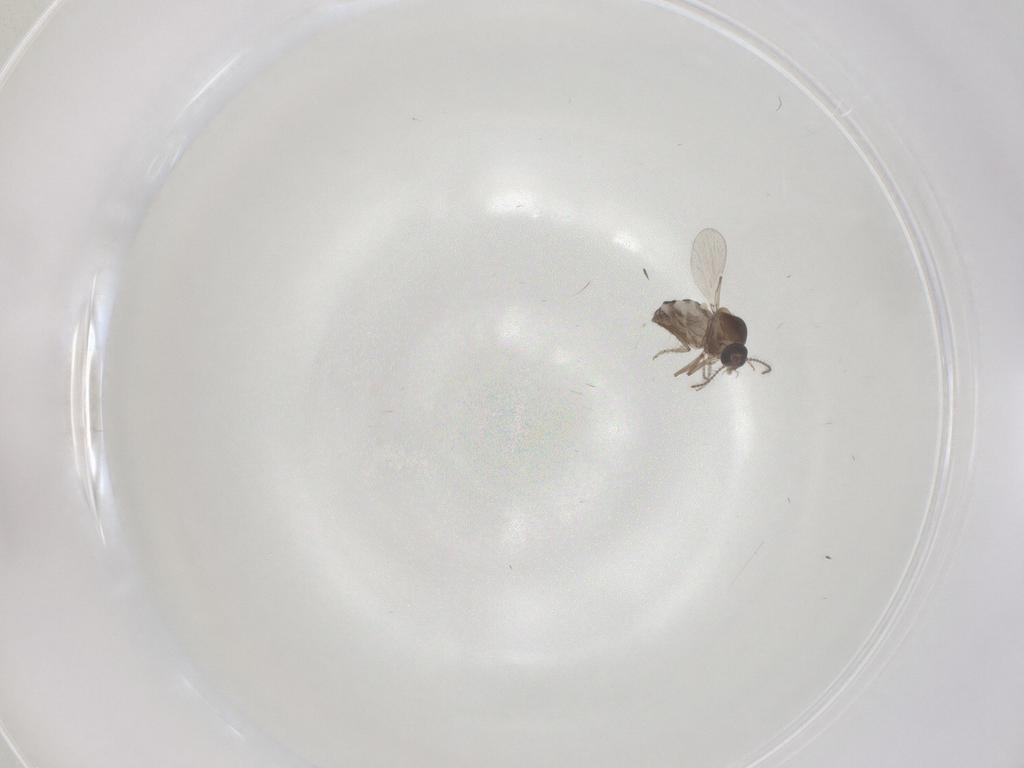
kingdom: Animalia
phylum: Arthropoda
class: Insecta
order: Diptera
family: Ceratopogonidae
